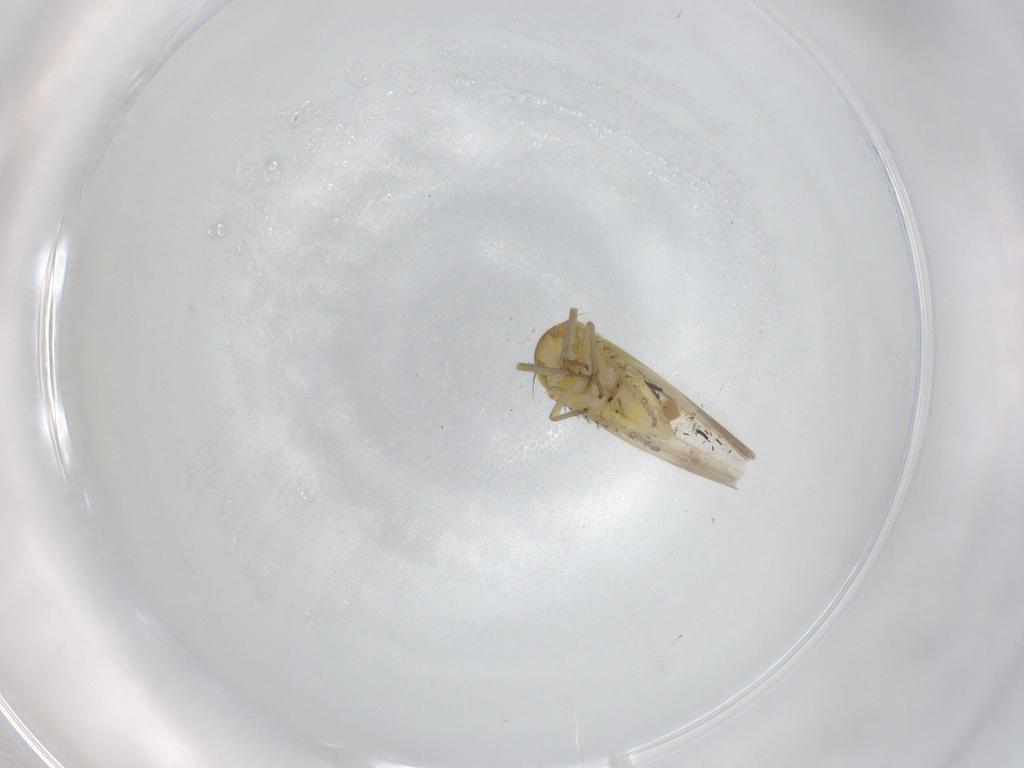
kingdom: Animalia
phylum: Arthropoda
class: Insecta
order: Hemiptera
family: Cicadellidae
